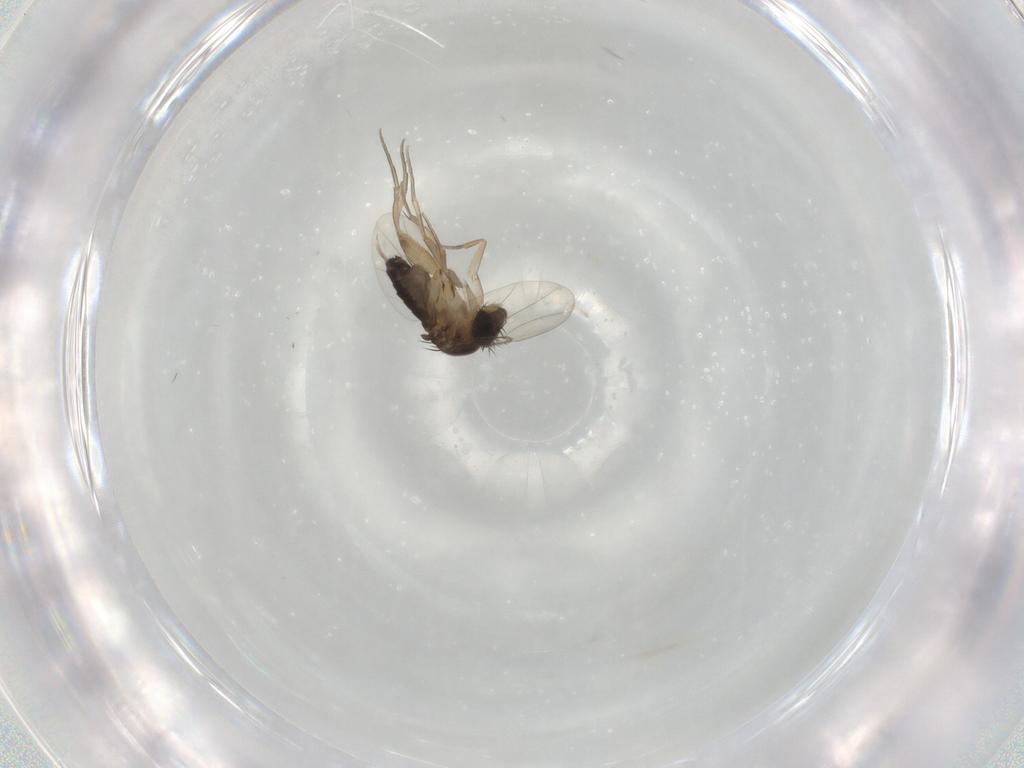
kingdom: Animalia
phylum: Arthropoda
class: Insecta
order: Diptera
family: Phoridae
